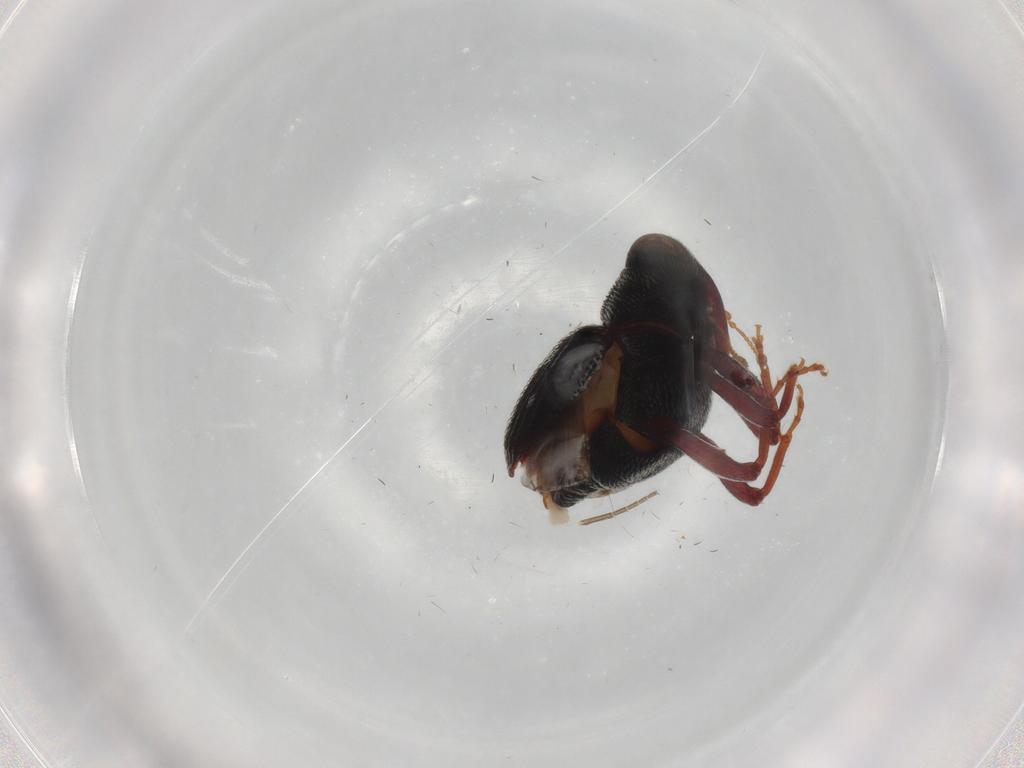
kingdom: Animalia
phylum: Arthropoda
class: Insecta
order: Coleoptera
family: Curculionidae
